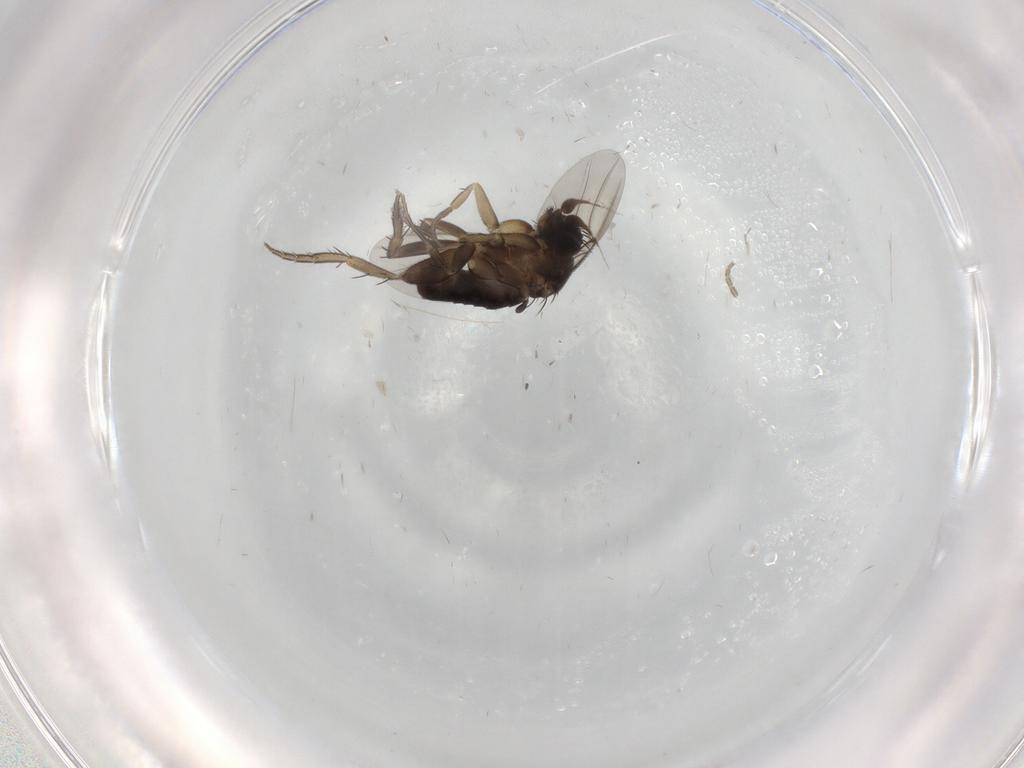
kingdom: Animalia
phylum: Arthropoda
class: Insecta
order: Diptera
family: Phoridae
